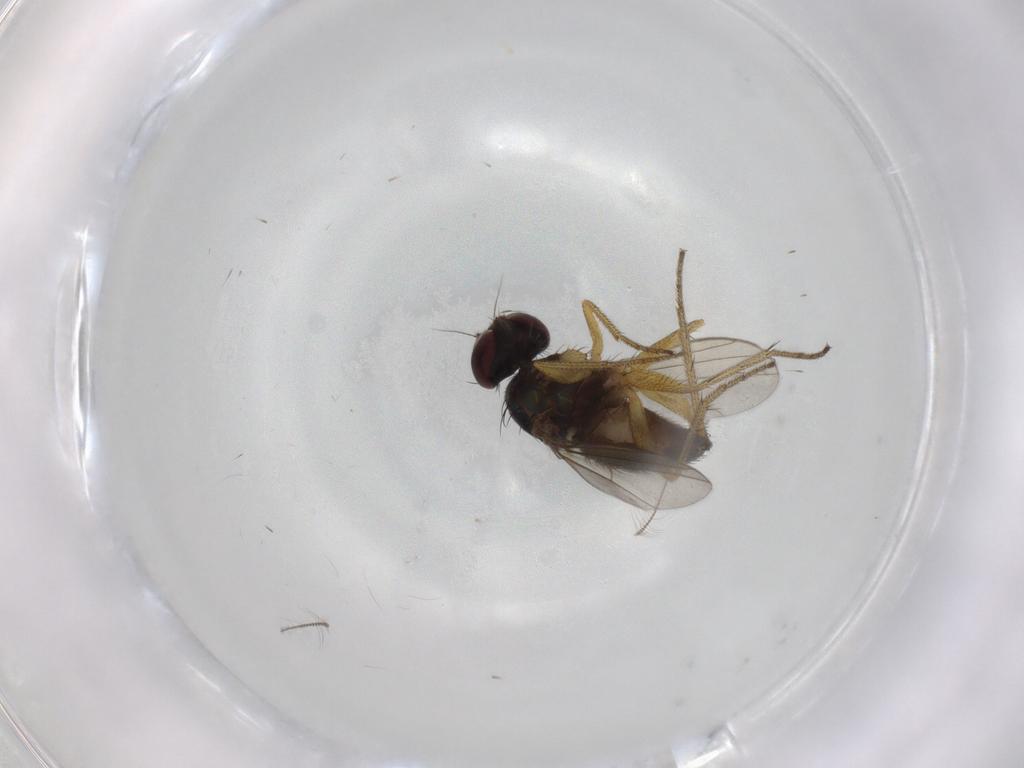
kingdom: Animalia
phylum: Arthropoda
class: Insecta
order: Diptera
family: Chironomidae
